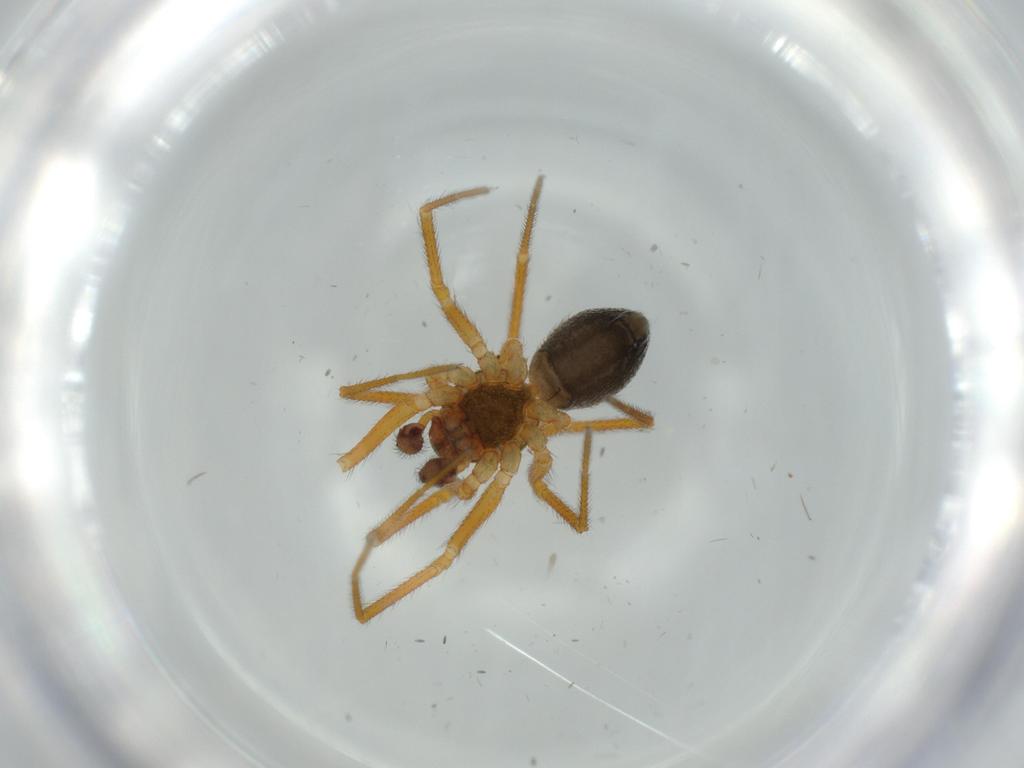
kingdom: Animalia
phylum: Arthropoda
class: Arachnida
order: Araneae
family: Linyphiidae
